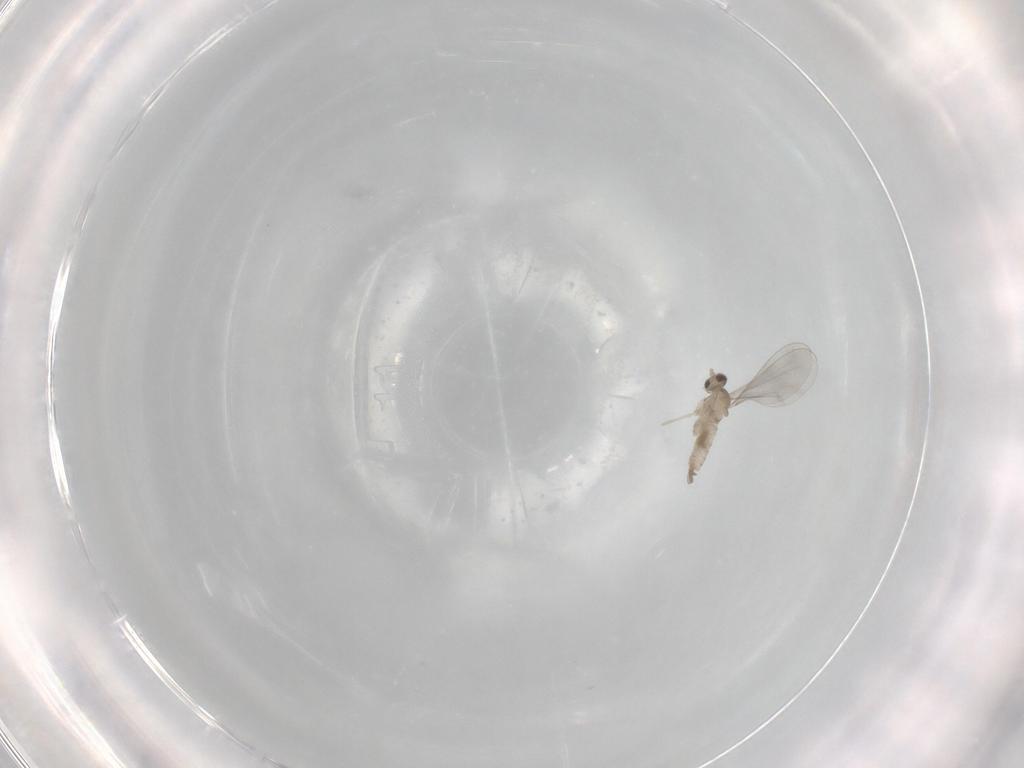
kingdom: Animalia
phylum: Arthropoda
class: Insecta
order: Diptera
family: Cecidomyiidae
